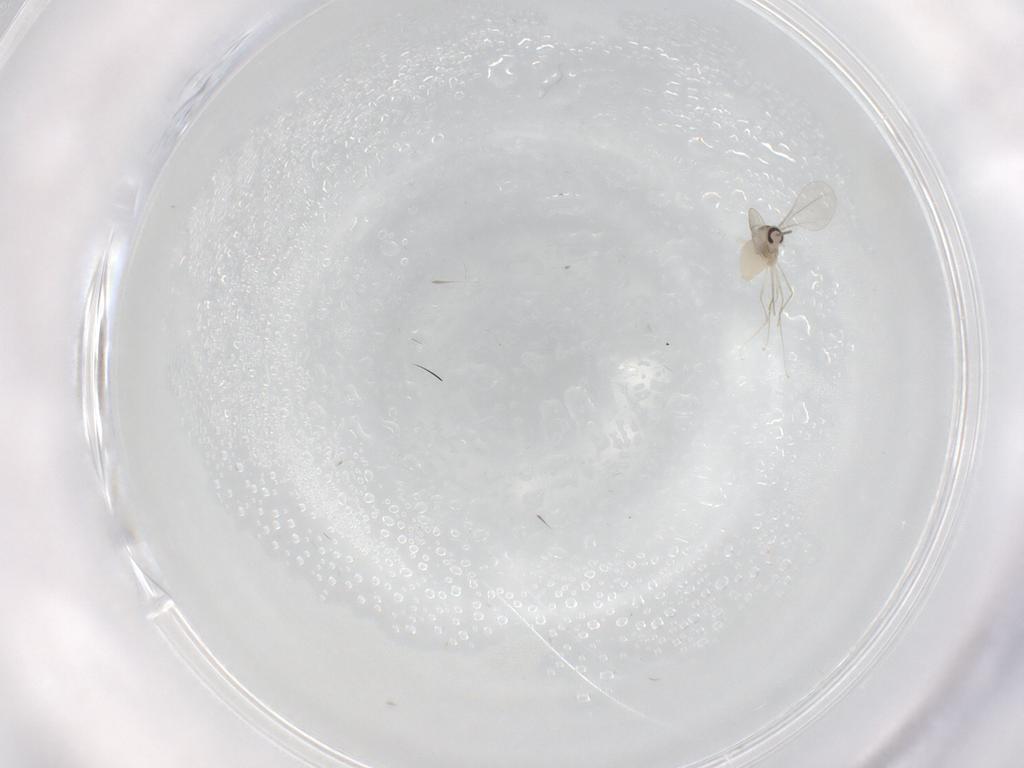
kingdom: Animalia
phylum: Arthropoda
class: Insecta
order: Diptera
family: Cecidomyiidae
